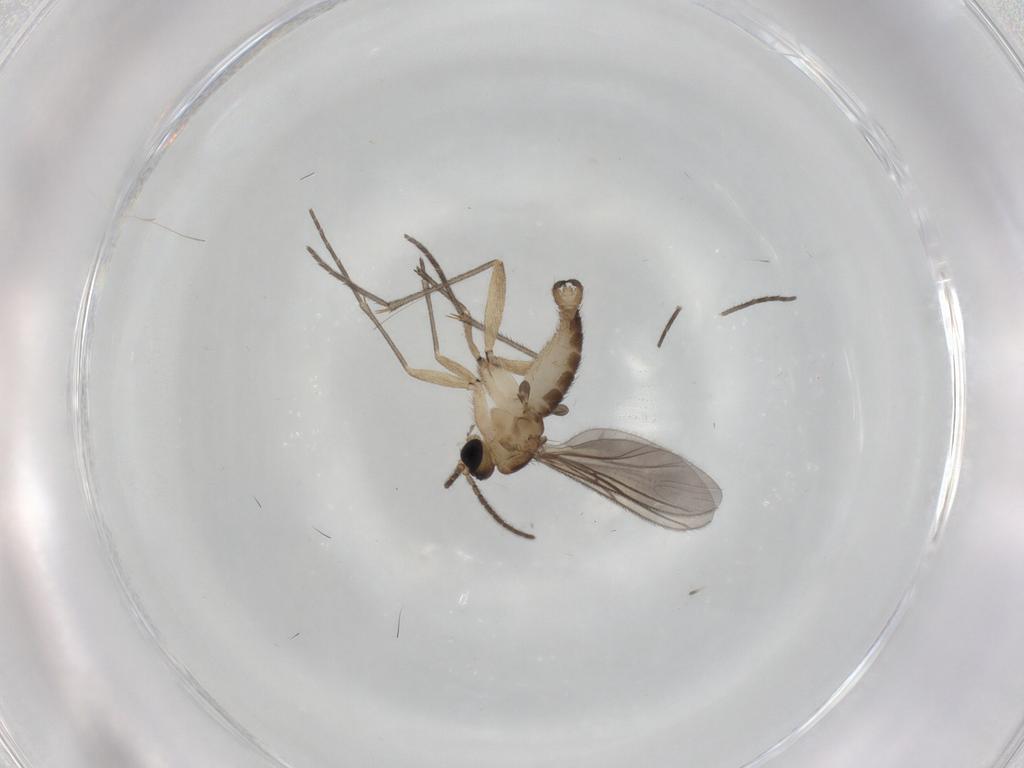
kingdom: Animalia
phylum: Arthropoda
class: Insecta
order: Diptera
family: Sciaridae
